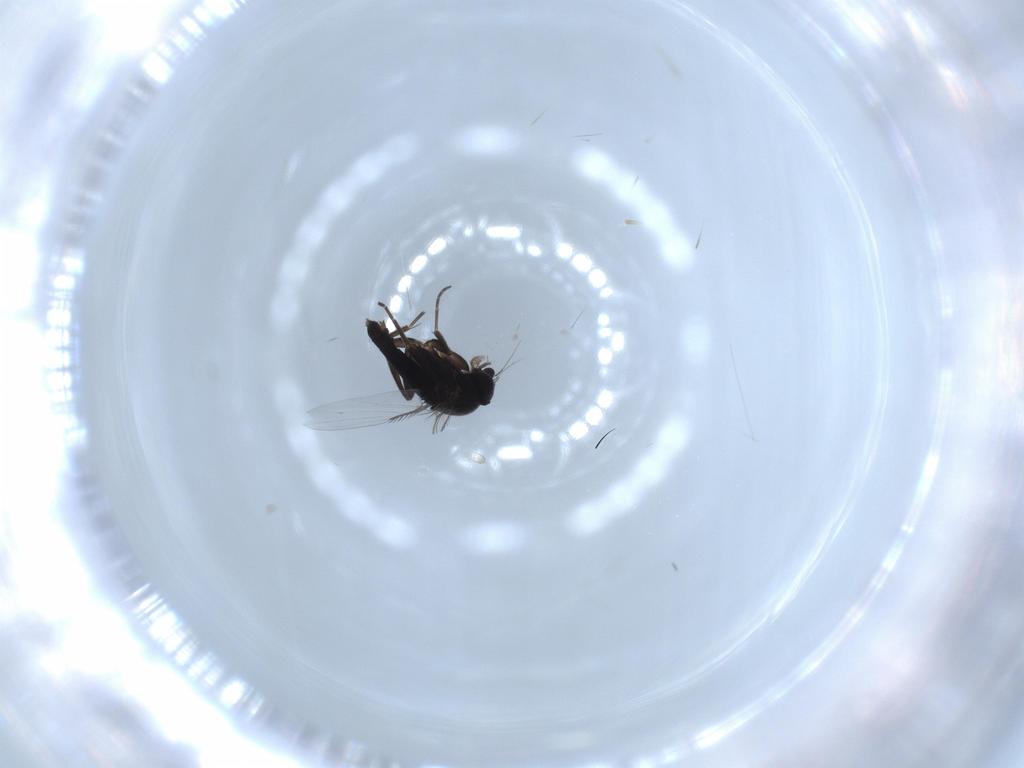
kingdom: Animalia
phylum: Arthropoda
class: Insecta
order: Diptera
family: Phoridae
